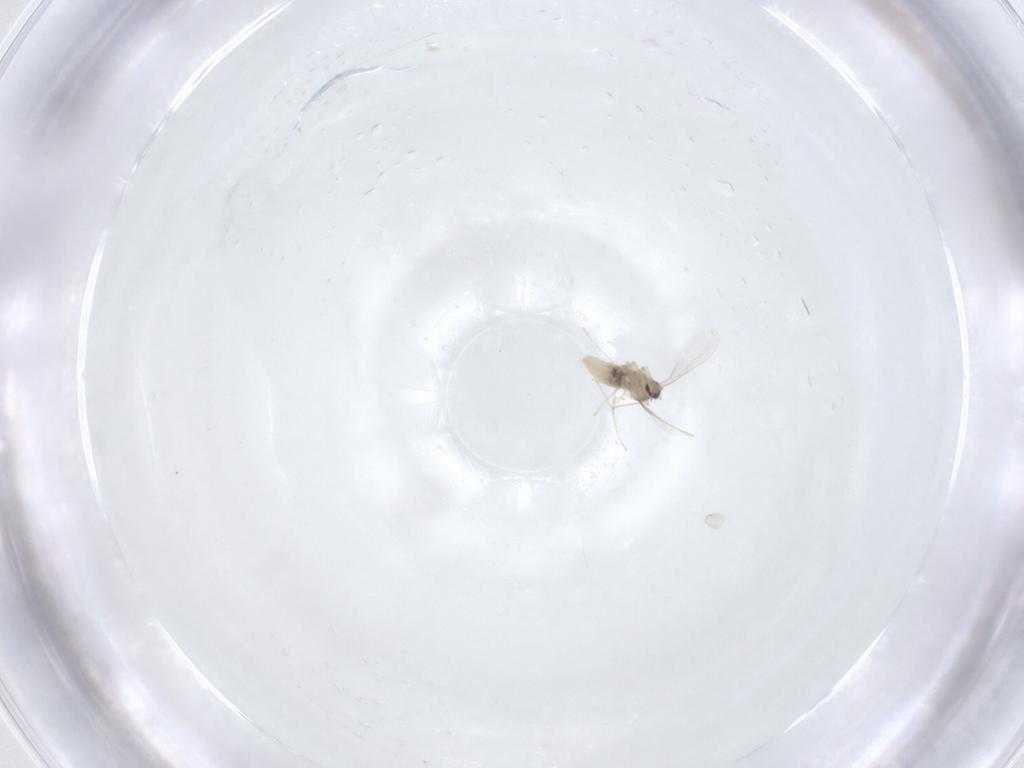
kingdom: Animalia
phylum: Arthropoda
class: Insecta
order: Diptera
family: Cecidomyiidae
